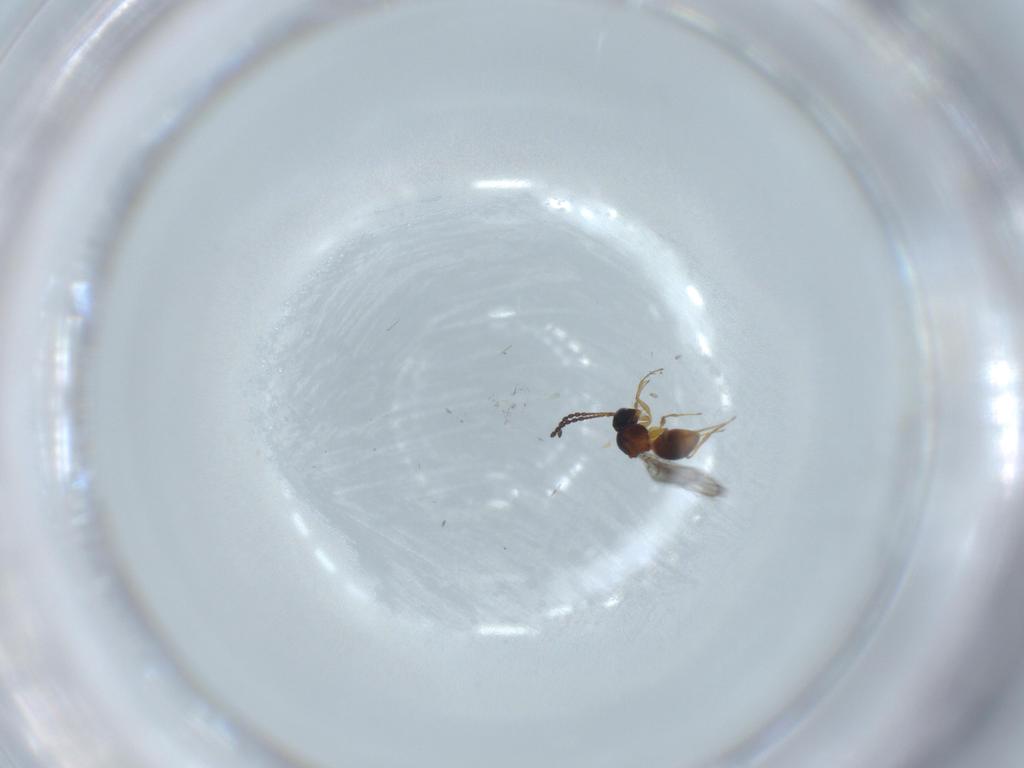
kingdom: Animalia
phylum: Arthropoda
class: Insecta
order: Hymenoptera
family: Figitidae
